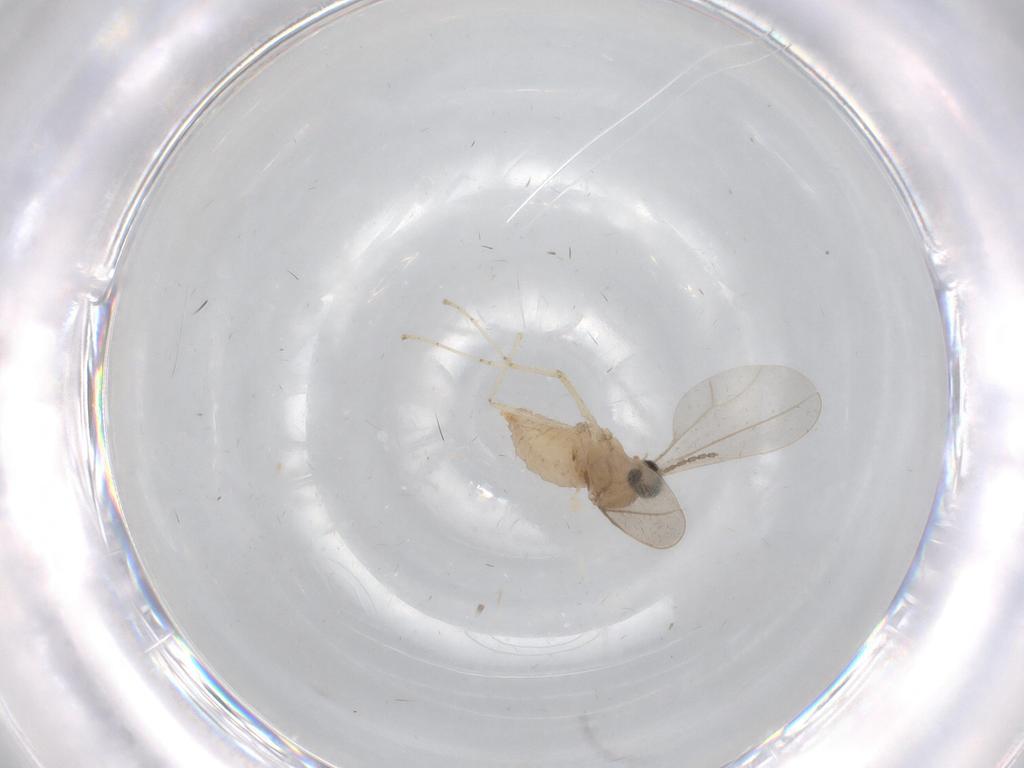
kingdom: Animalia
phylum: Arthropoda
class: Insecta
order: Diptera
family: Cecidomyiidae
